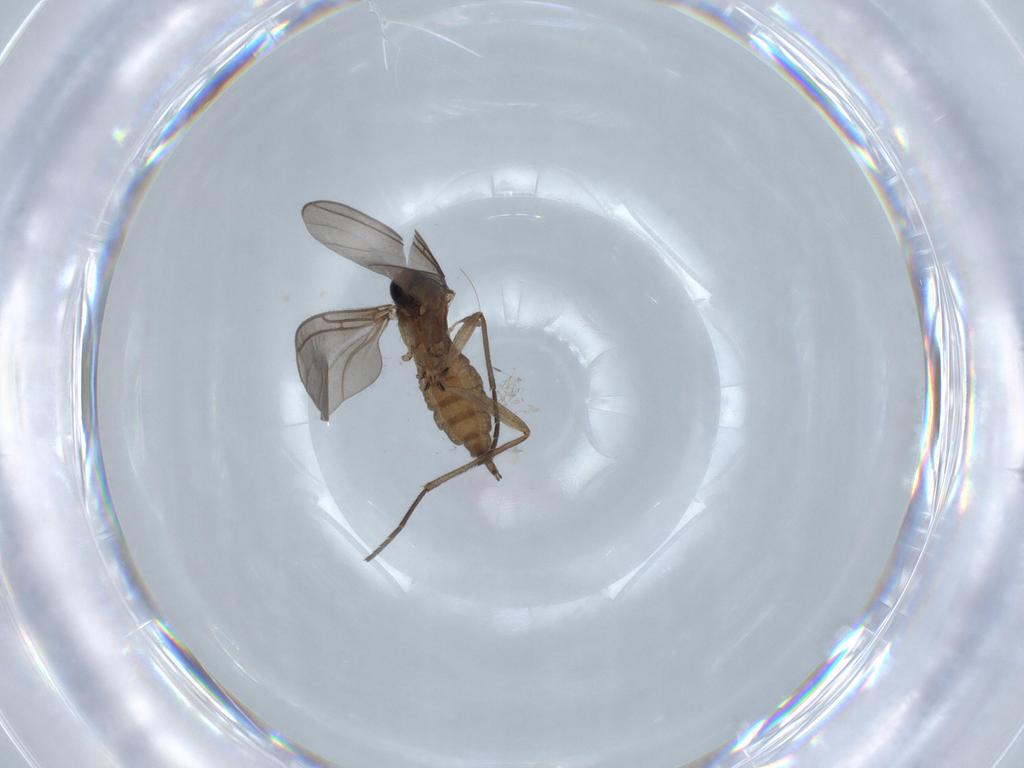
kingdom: Animalia
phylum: Arthropoda
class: Insecta
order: Diptera
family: Sciaridae
